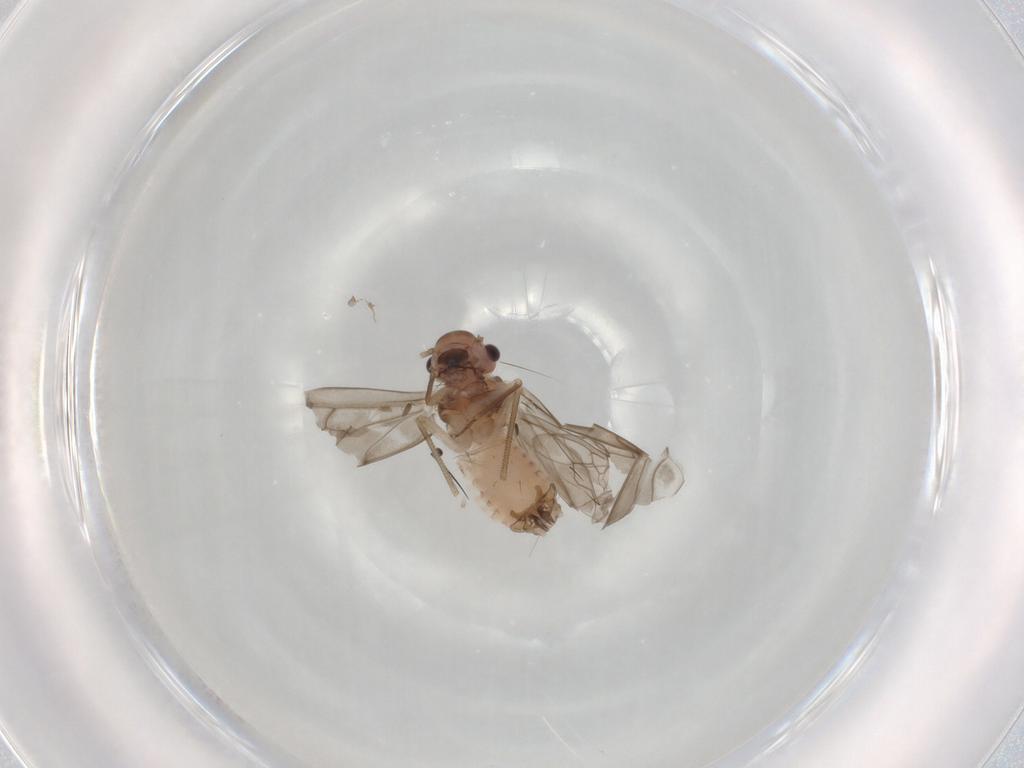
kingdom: Animalia
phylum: Arthropoda
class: Insecta
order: Psocodea
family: Peripsocidae
